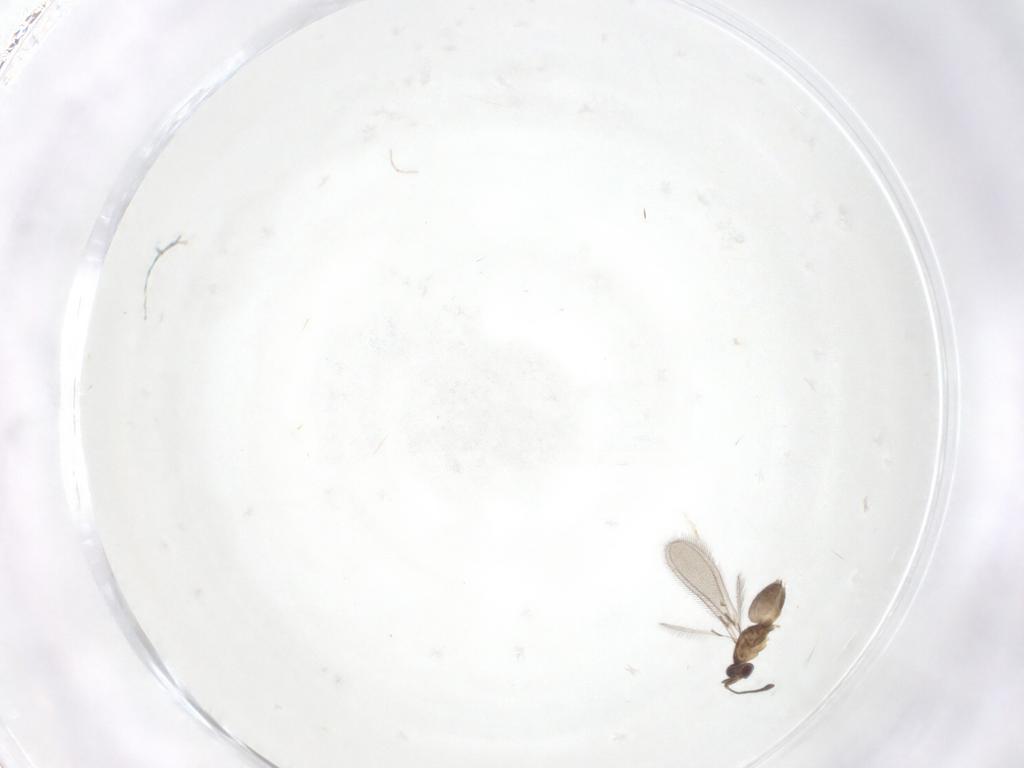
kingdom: Animalia
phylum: Arthropoda
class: Insecta
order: Hymenoptera
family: Mymaridae
